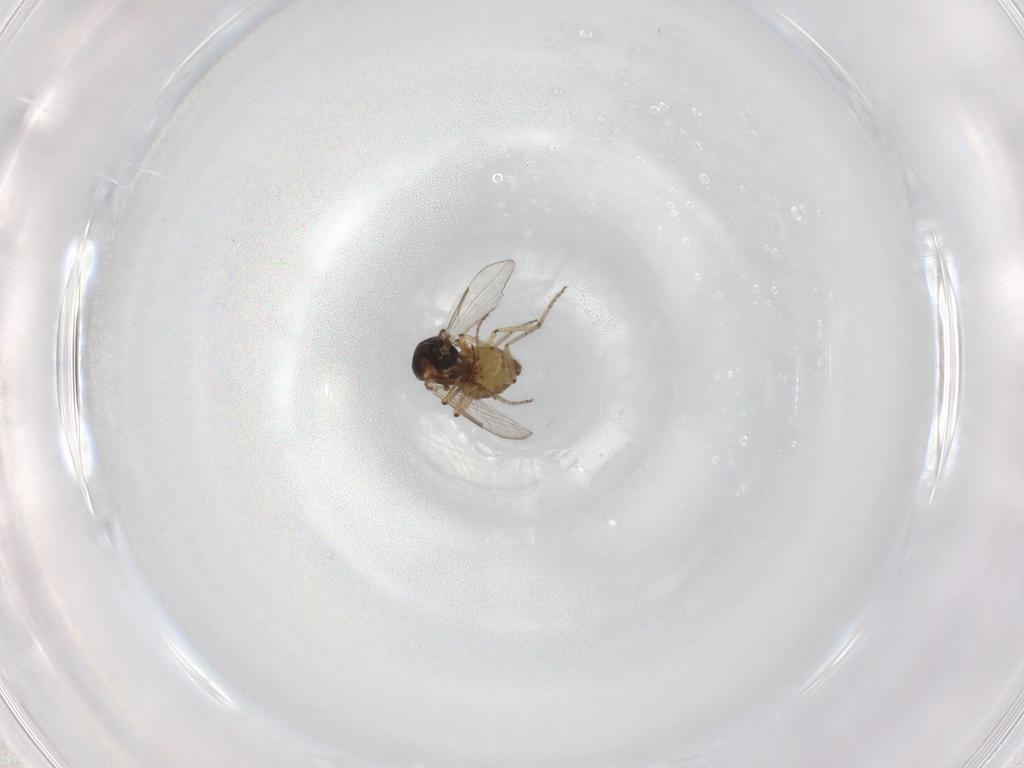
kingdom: Animalia
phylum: Arthropoda
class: Insecta
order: Diptera
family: Ceratopogonidae
